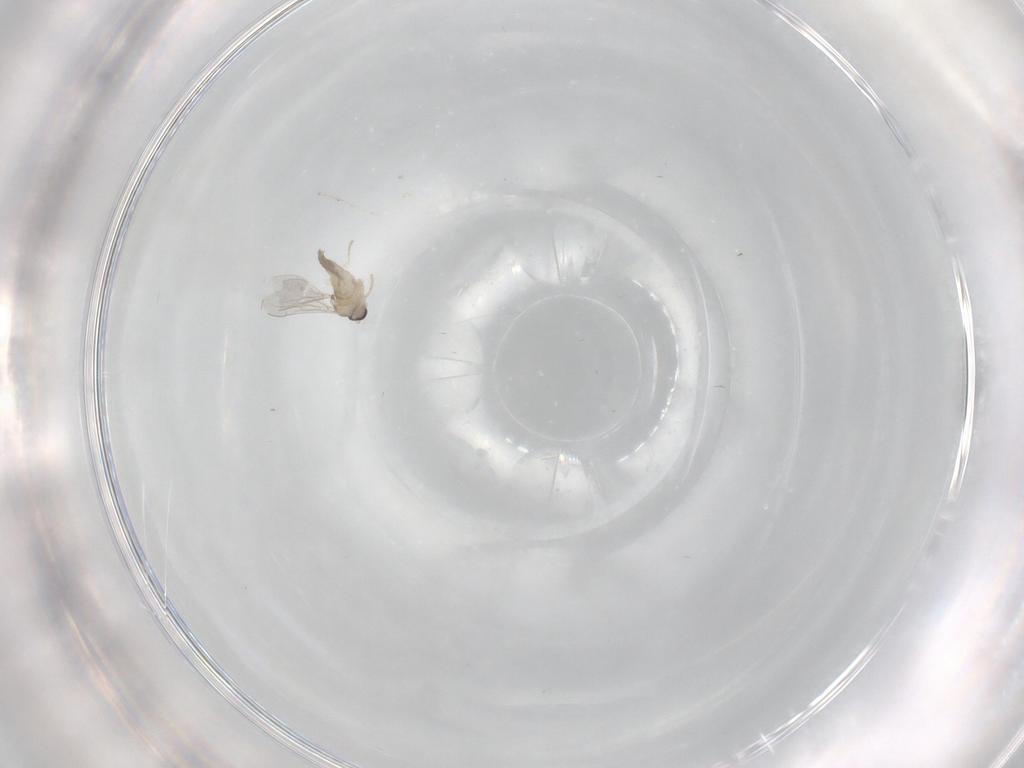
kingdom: Animalia
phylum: Arthropoda
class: Insecta
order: Diptera
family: Cecidomyiidae
